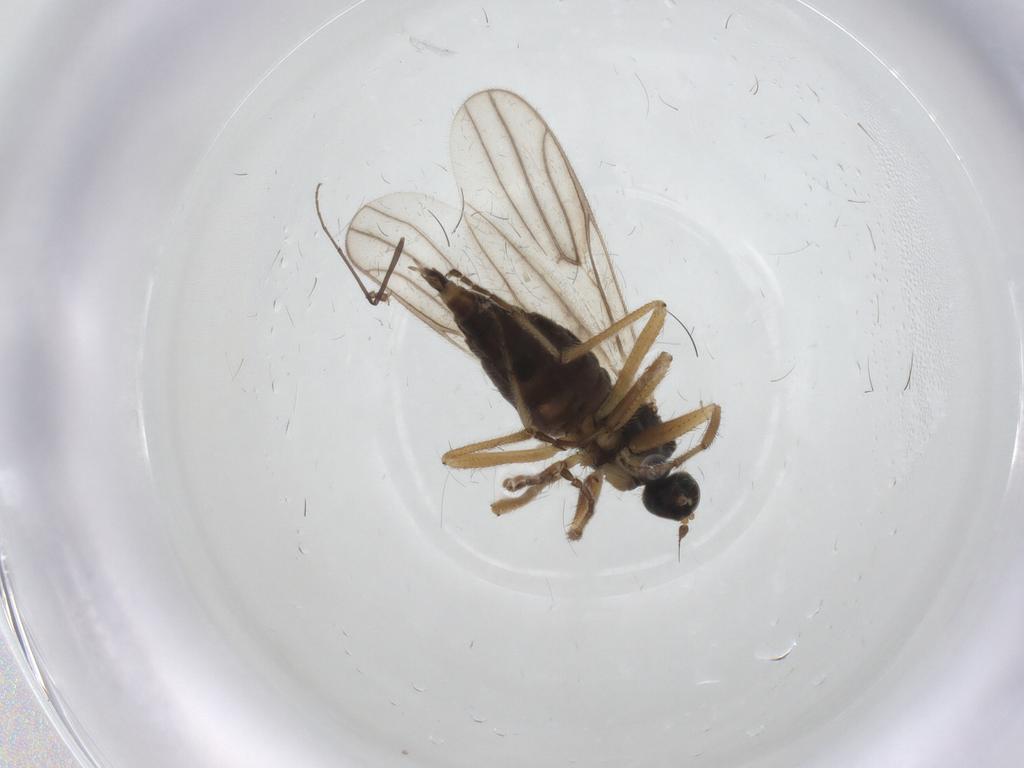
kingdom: Animalia
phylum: Arthropoda
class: Insecta
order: Diptera
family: Hybotidae
